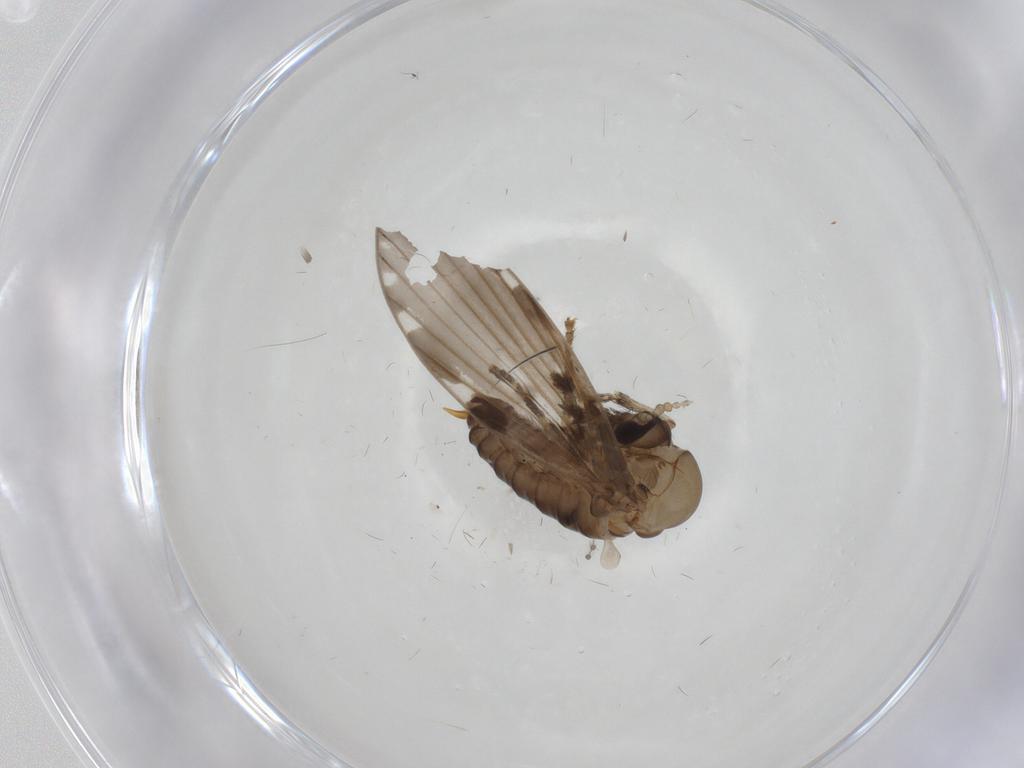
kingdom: Animalia
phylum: Arthropoda
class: Insecta
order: Diptera
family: Psychodidae
